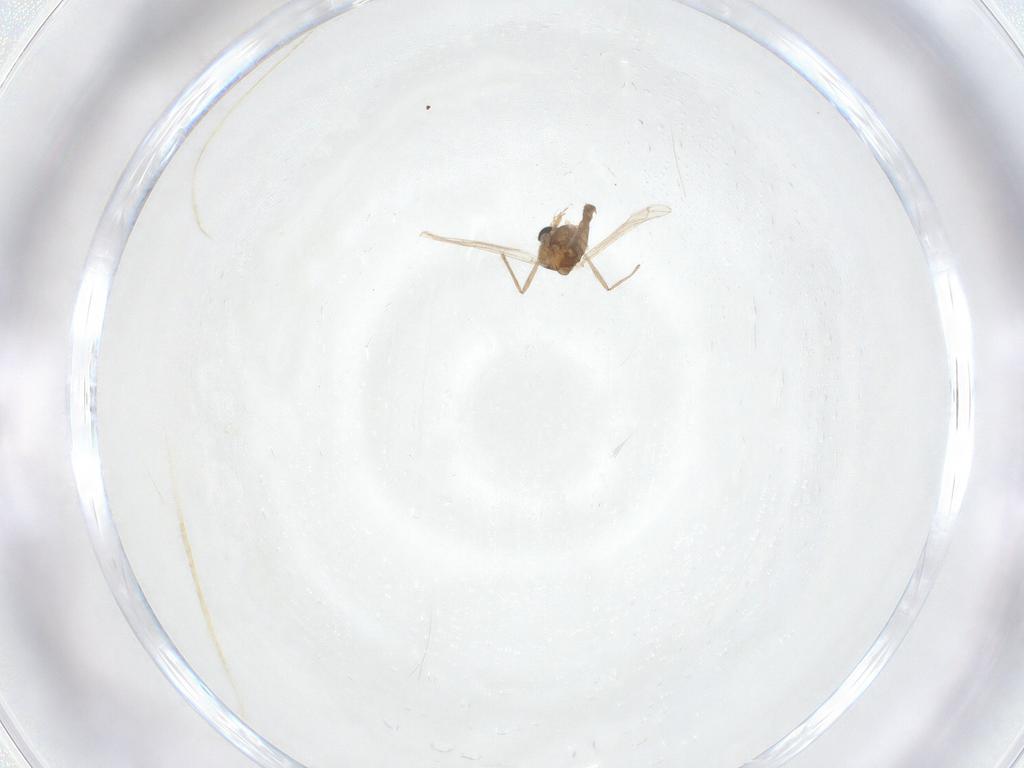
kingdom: Animalia
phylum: Arthropoda
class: Insecta
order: Diptera
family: Chironomidae
